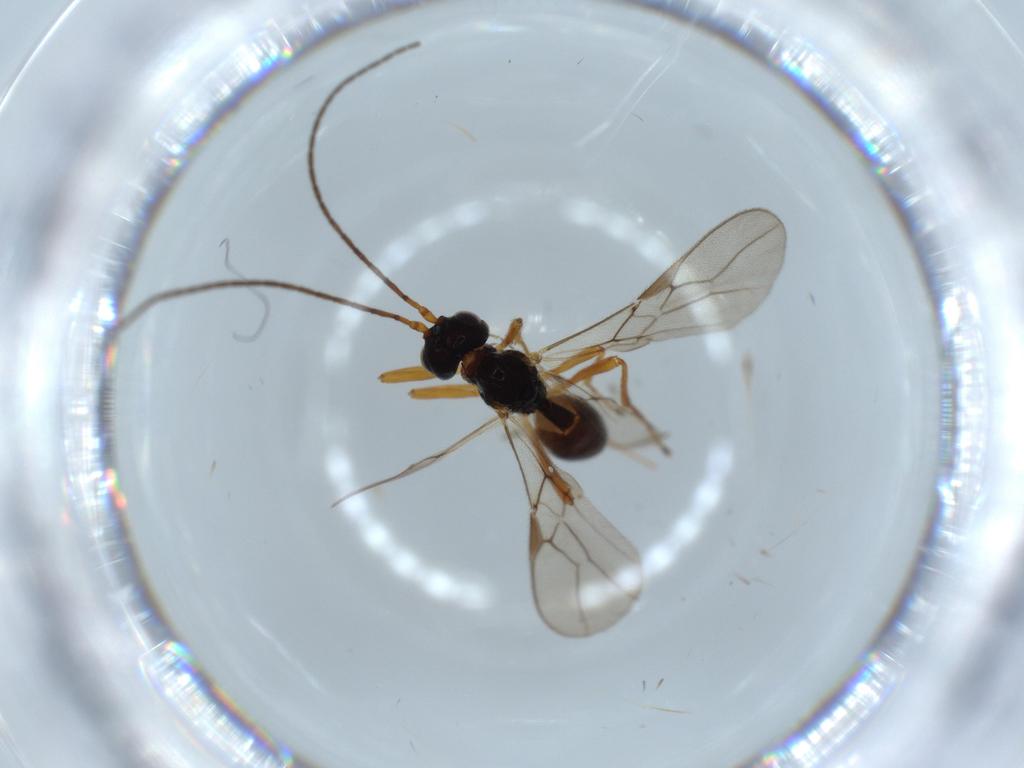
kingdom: Animalia
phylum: Arthropoda
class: Insecta
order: Hymenoptera
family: Braconidae
